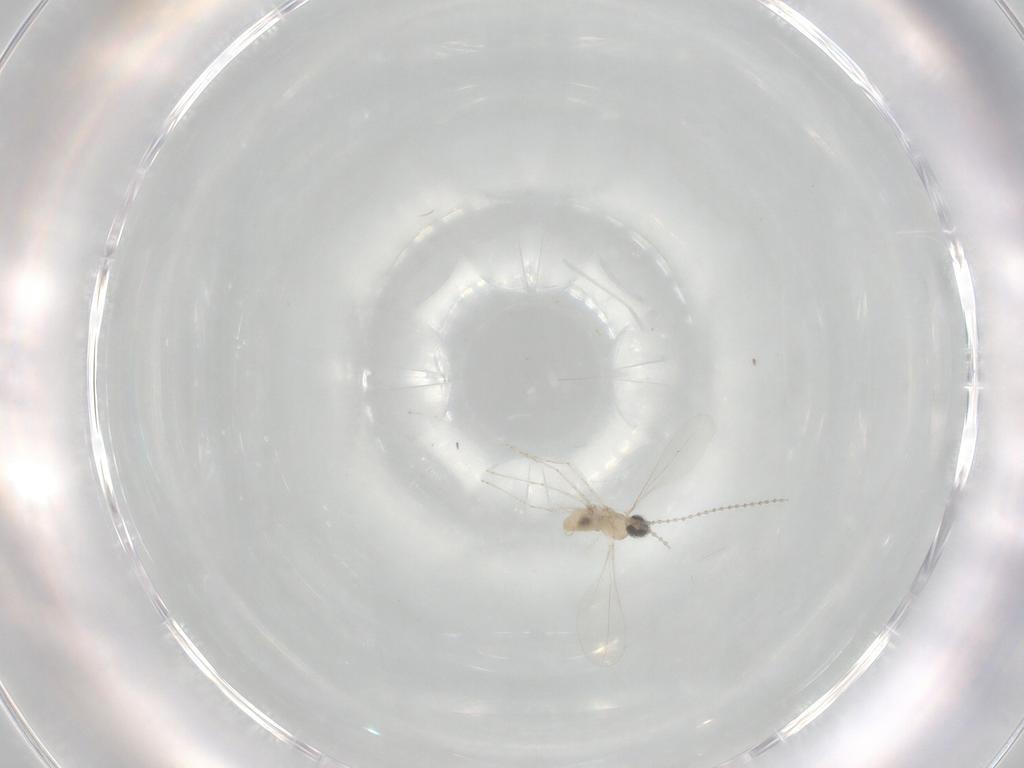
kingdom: Animalia
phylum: Arthropoda
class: Insecta
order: Diptera
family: Cecidomyiidae
